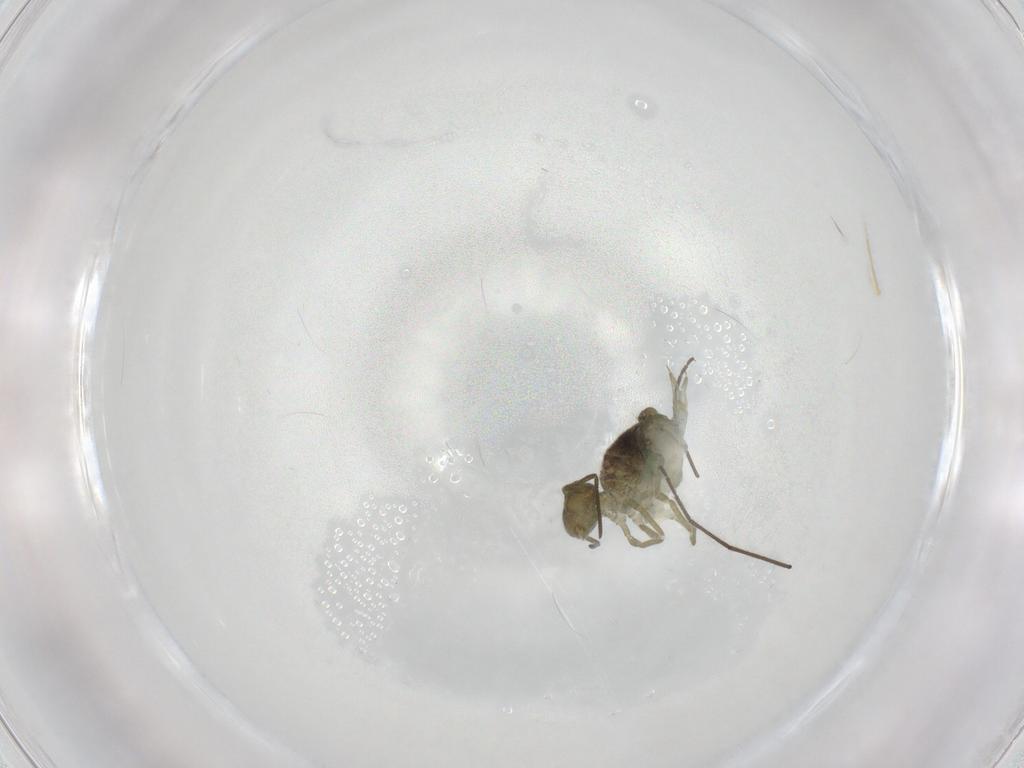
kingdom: Animalia
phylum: Arthropoda
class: Collembola
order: Symphypleona
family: Sminthuridae
